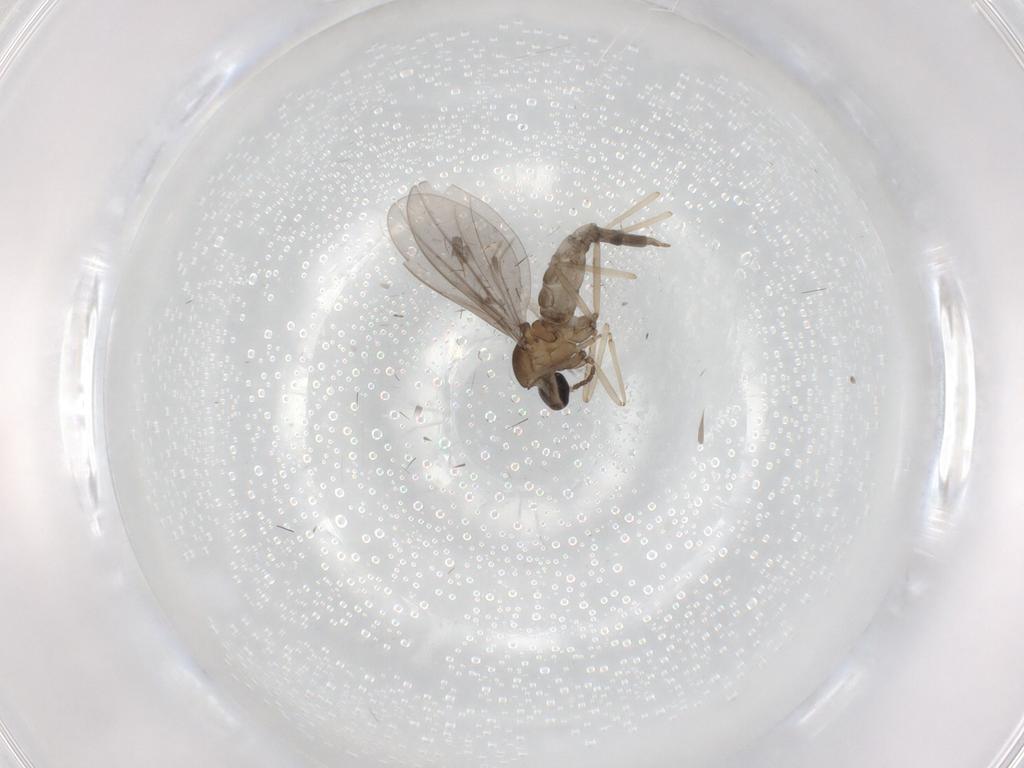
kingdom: Animalia
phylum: Arthropoda
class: Insecta
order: Diptera
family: Cecidomyiidae
